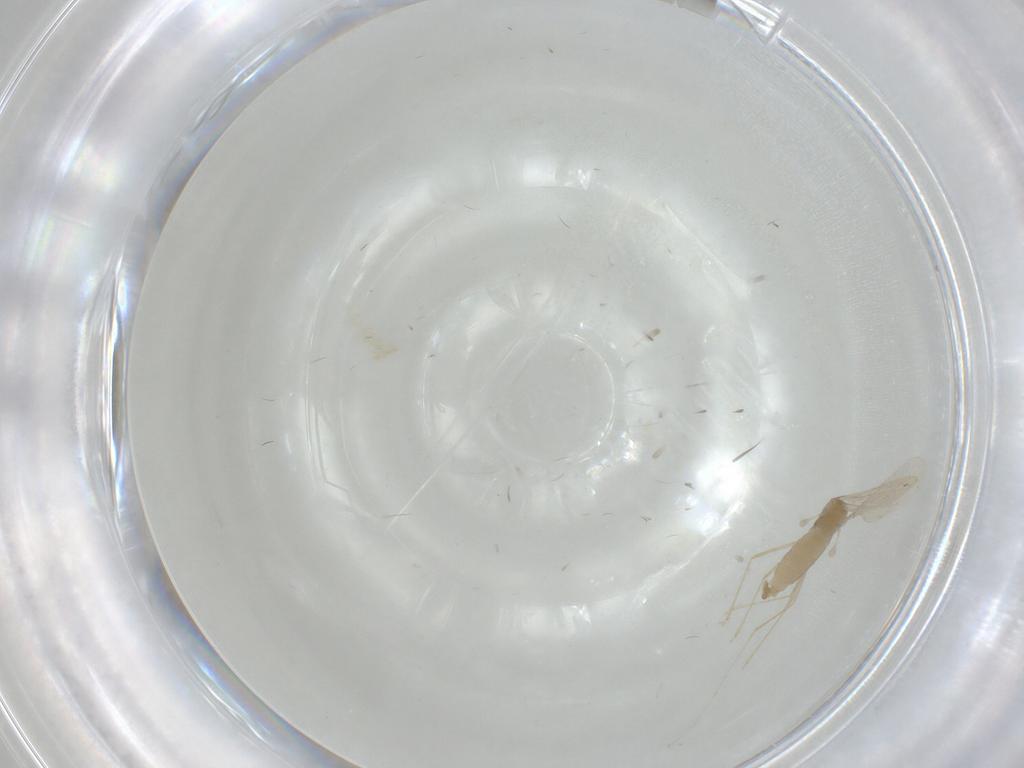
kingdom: Animalia
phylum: Arthropoda
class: Insecta
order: Diptera
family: Cecidomyiidae
